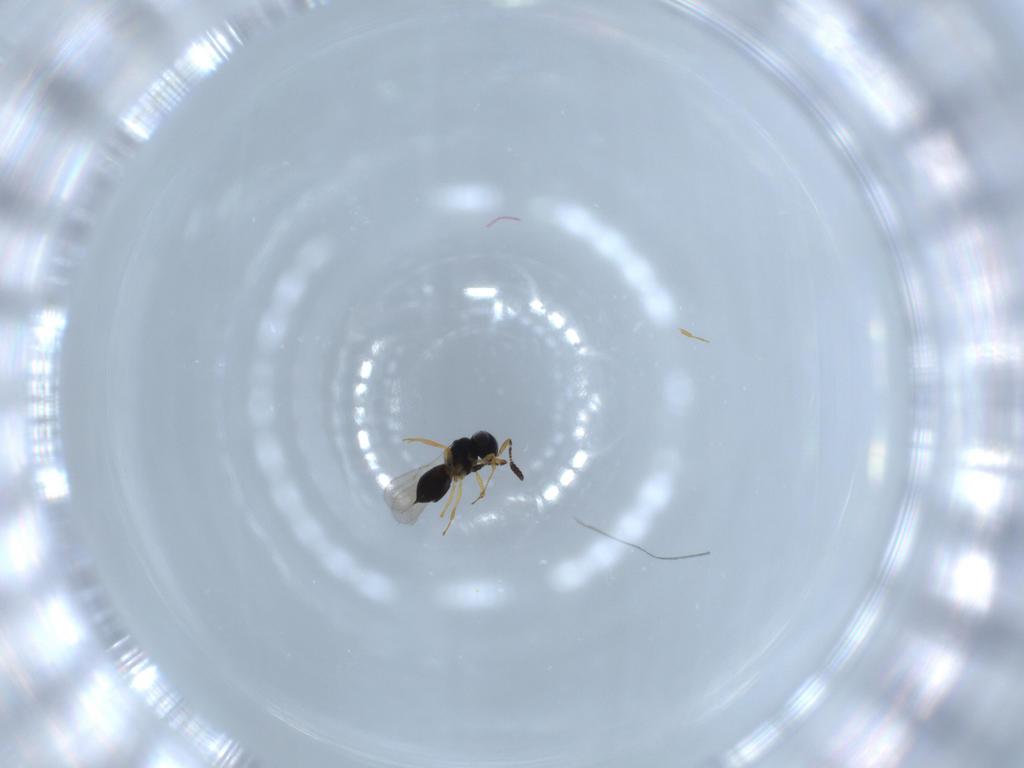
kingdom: Animalia
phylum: Arthropoda
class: Insecta
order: Hymenoptera
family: Scelionidae
